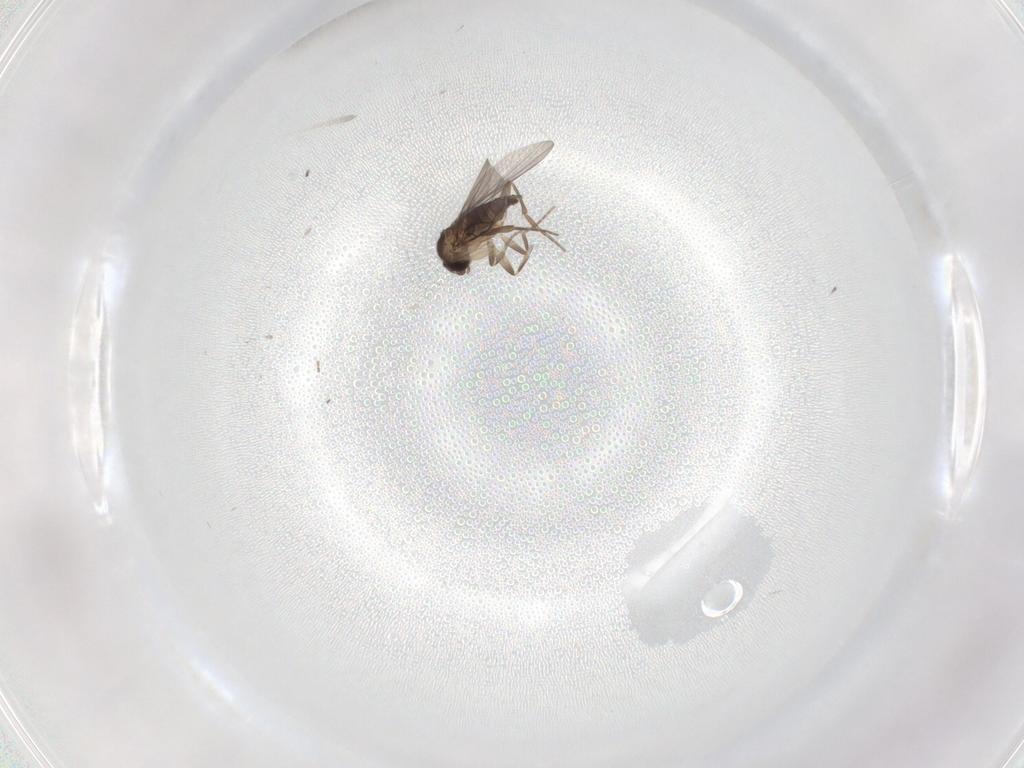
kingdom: Animalia
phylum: Arthropoda
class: Insecta
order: Diptera
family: Phoridae
